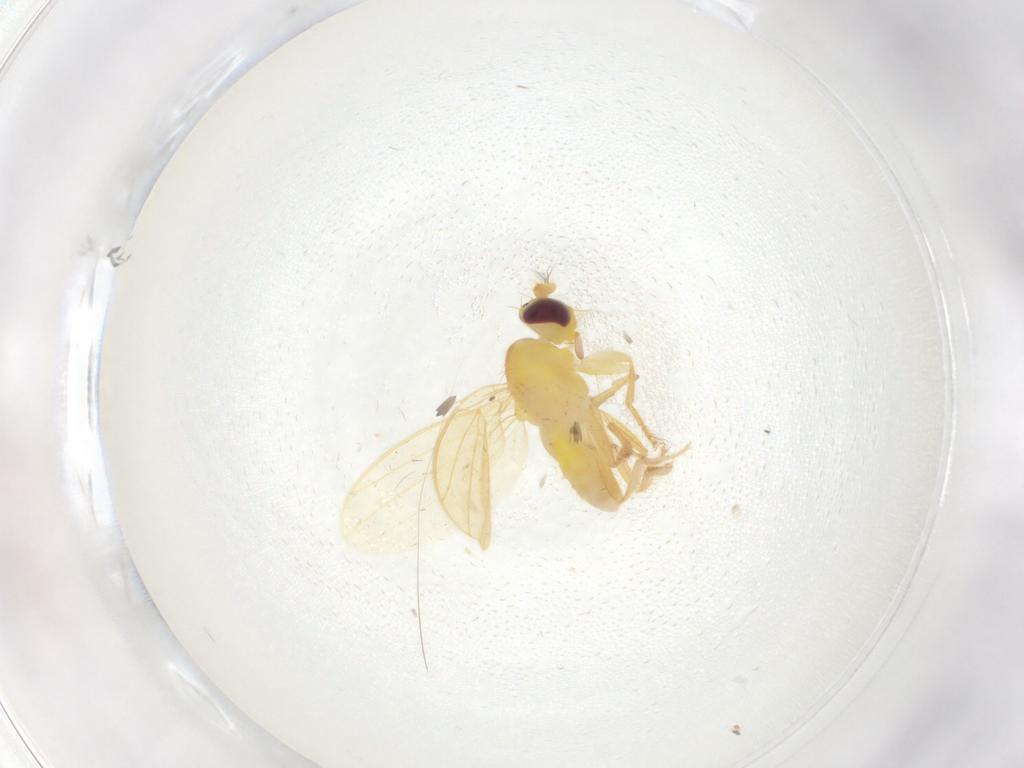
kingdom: Animalia
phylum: Arthropoda
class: Insecta
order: Diptera
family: Periscelididae
